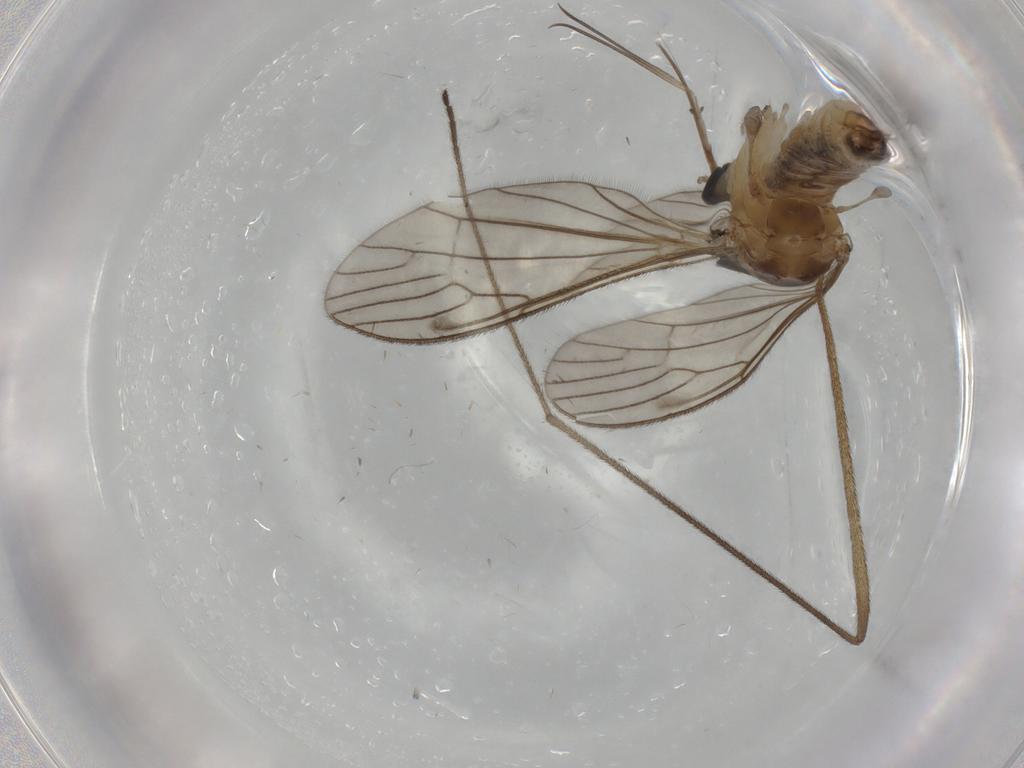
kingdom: Animalia
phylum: Arthropoda
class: Insecta
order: Diptera
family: Dolichopodidae
